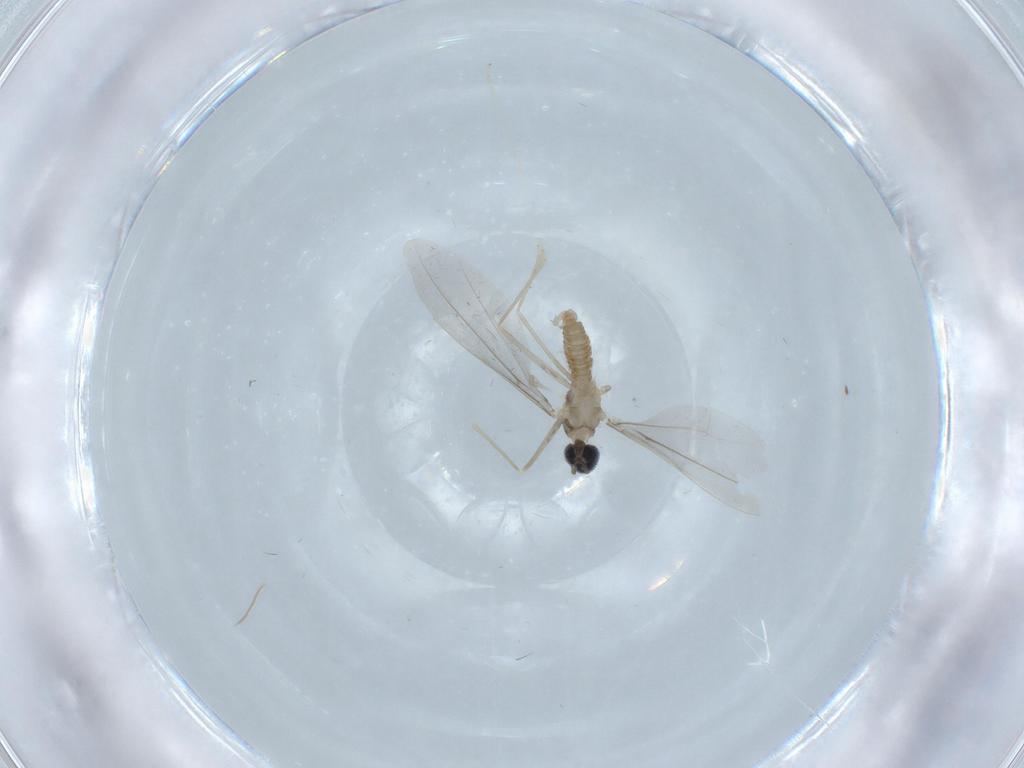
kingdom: Animalia
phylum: Arthropoda
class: Insecta
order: Diptera
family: Cecidomyiidae
